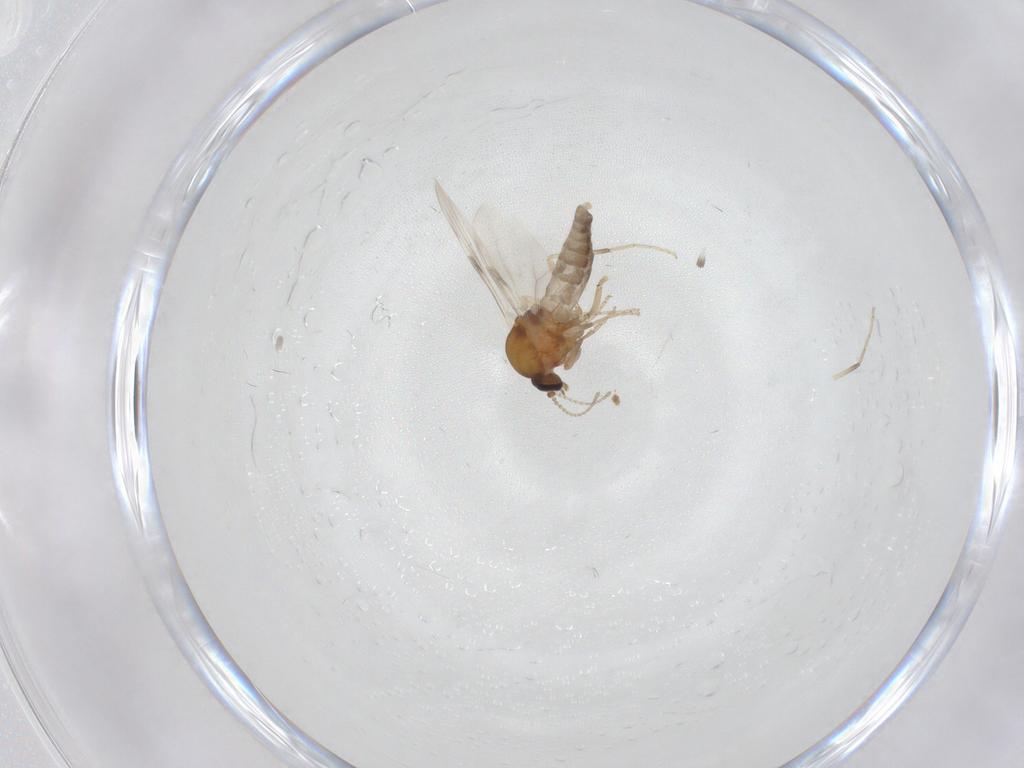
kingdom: Animalia
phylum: Arthropoda
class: Insecta
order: Diptera
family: Ceratopogonidae
